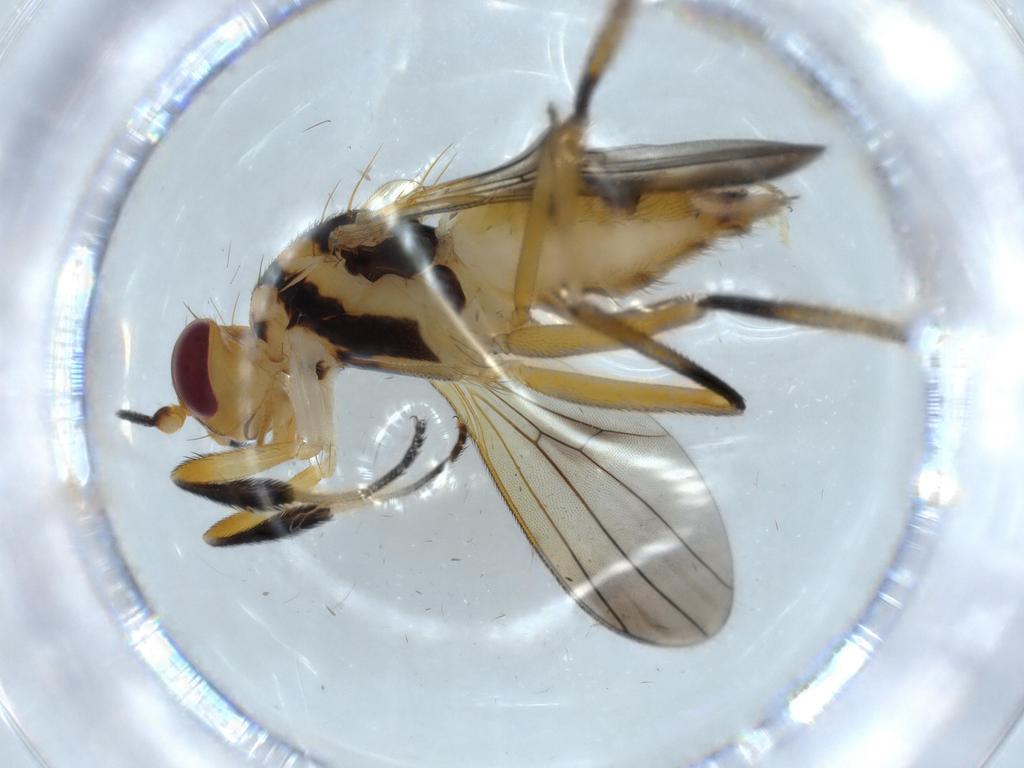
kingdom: Animalia
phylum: Arthropoda
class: Insecta
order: Diptera
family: Clusiidae
